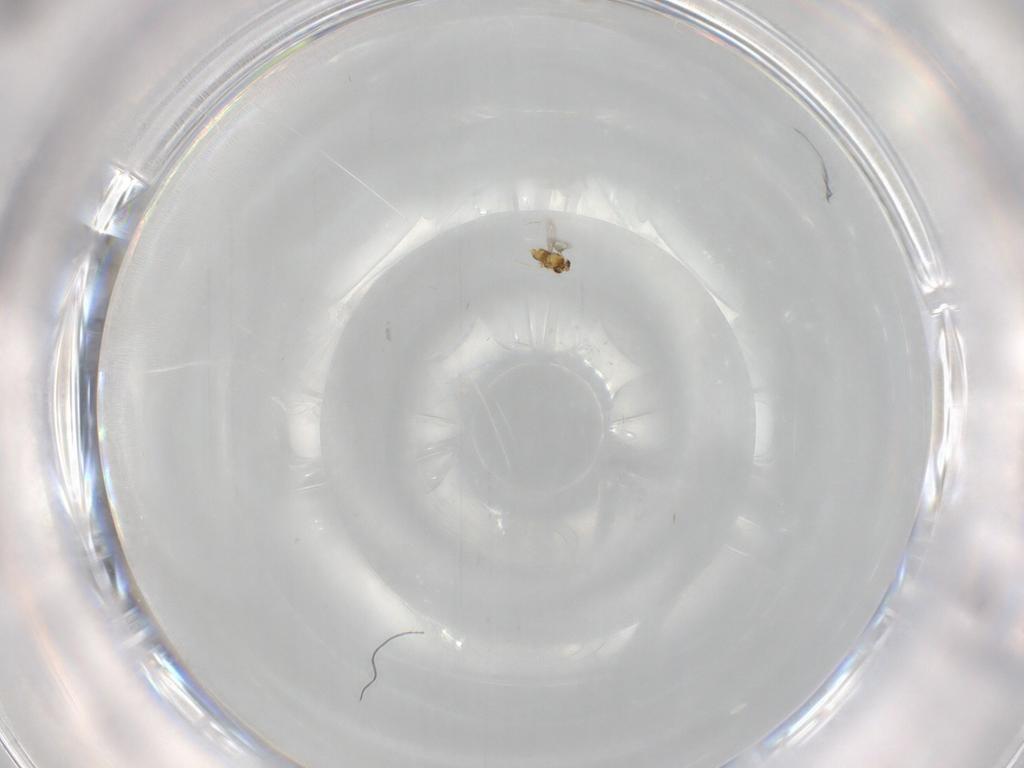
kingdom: Animalia
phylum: Arthropoda
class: Insecta
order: Hymenoptera
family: Aphelinidae
